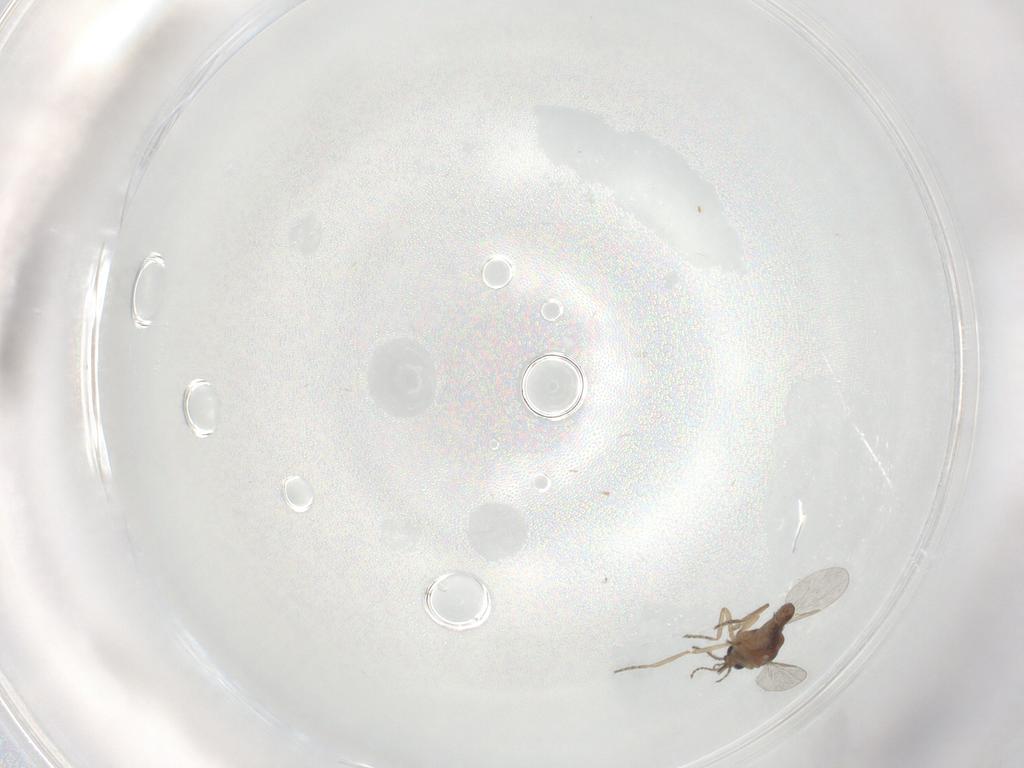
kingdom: Animalia
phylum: Arthropoda
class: Insecta
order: Diptera
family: Ceratopogonidae
